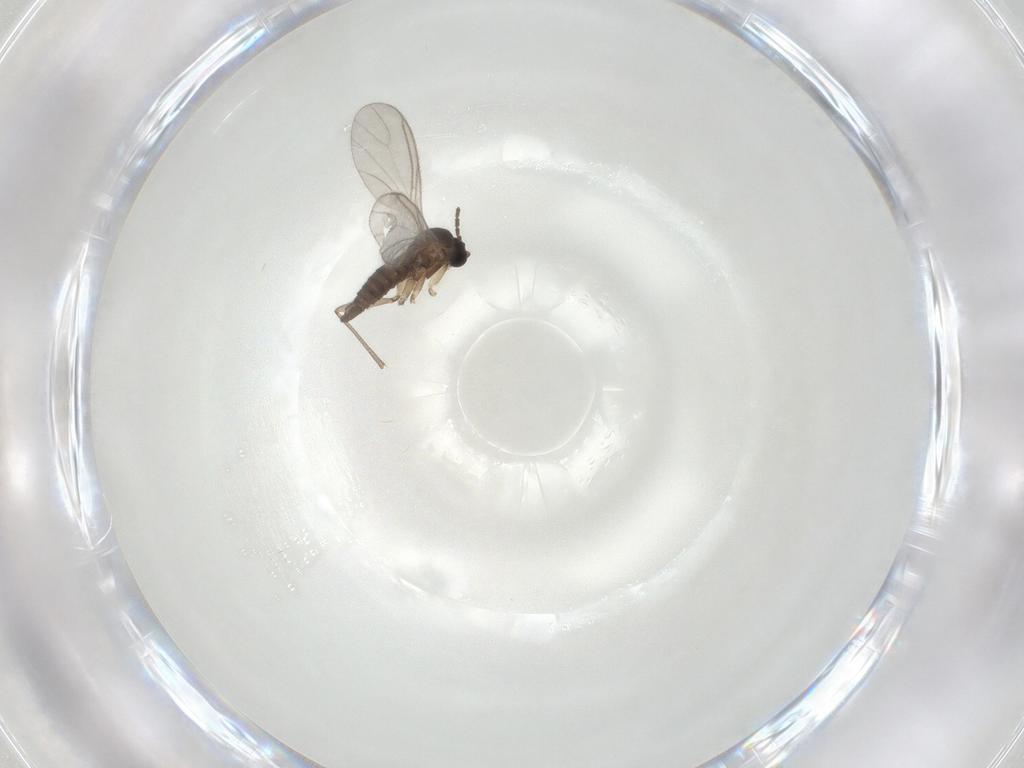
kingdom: Animalia
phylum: Arthropoda
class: Insecta
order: Diptera
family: Sciaridae
